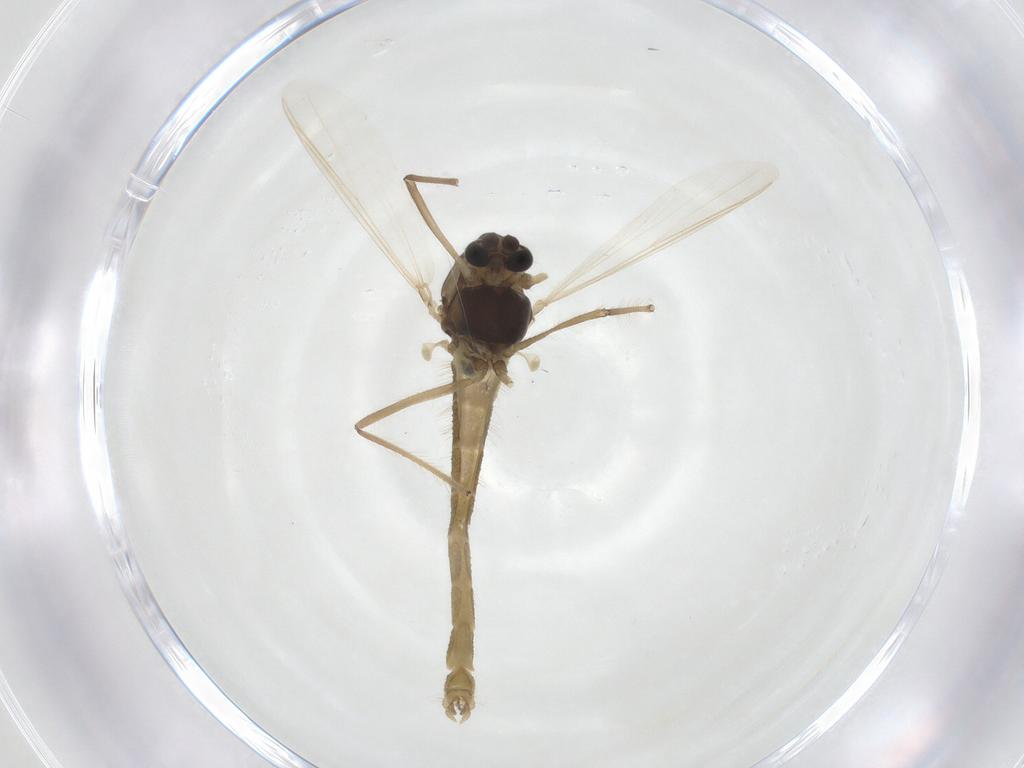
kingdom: Animalia
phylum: Arthropoda
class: Insecta
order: Diptera
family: Chironomidae
